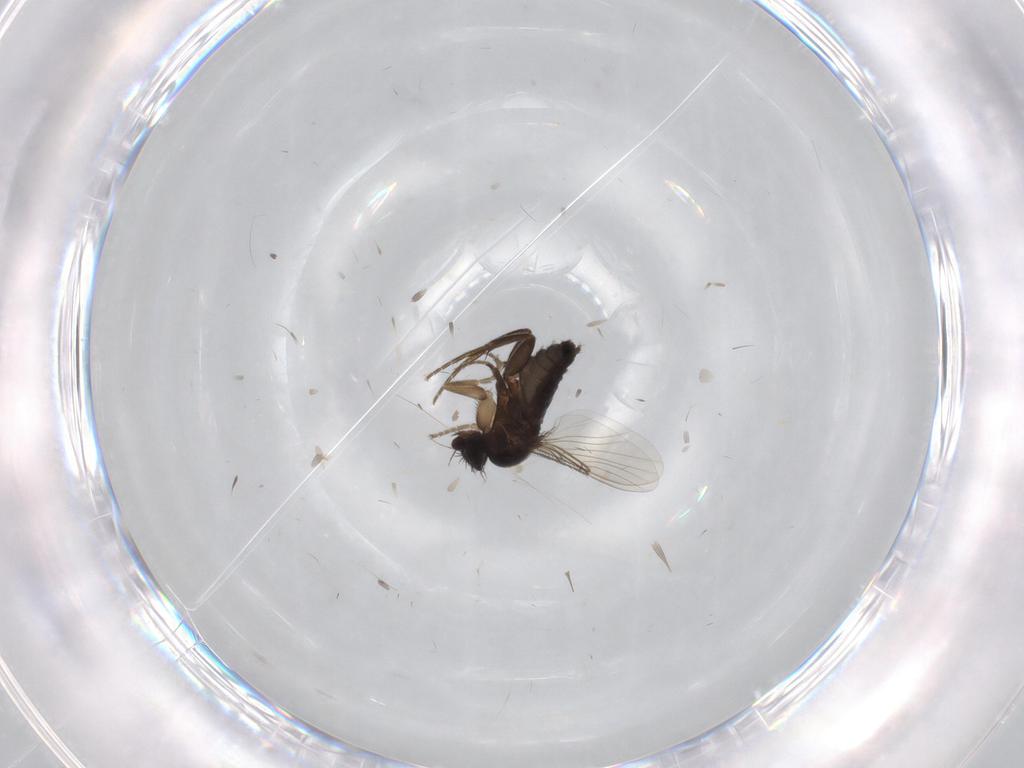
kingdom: Animalia
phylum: Arthropoda
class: Insecta
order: Diptera
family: Phoridae
